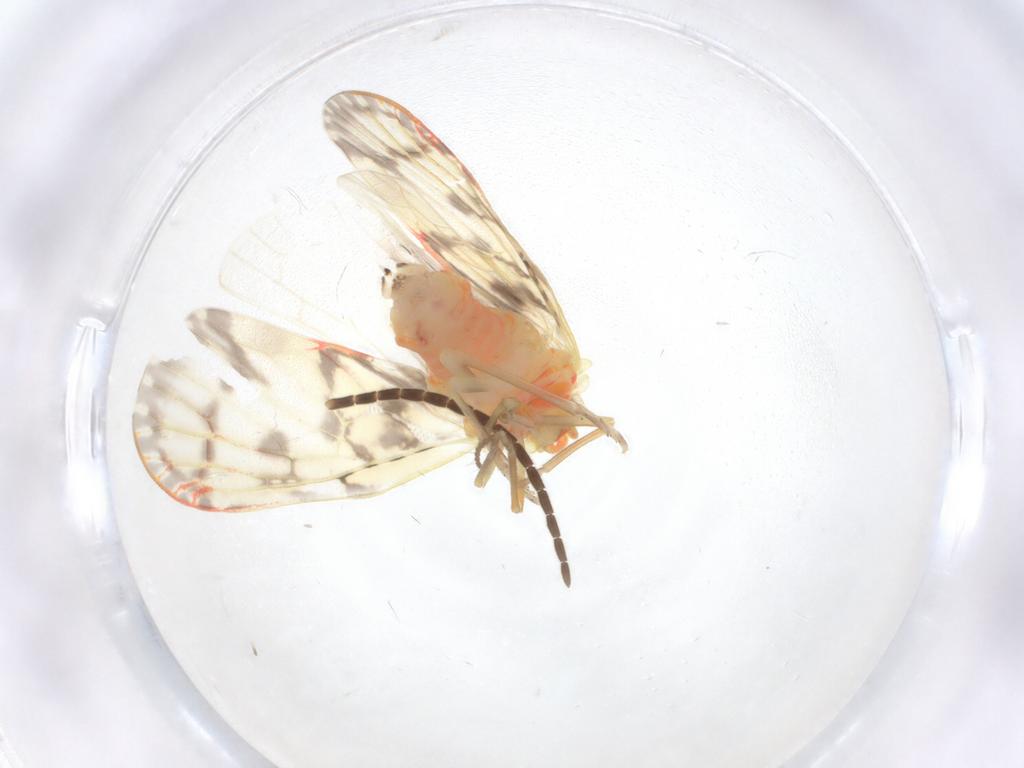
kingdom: Animalia
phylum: Arthropoda
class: Insecta
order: Hemiptera
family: Derbidae
